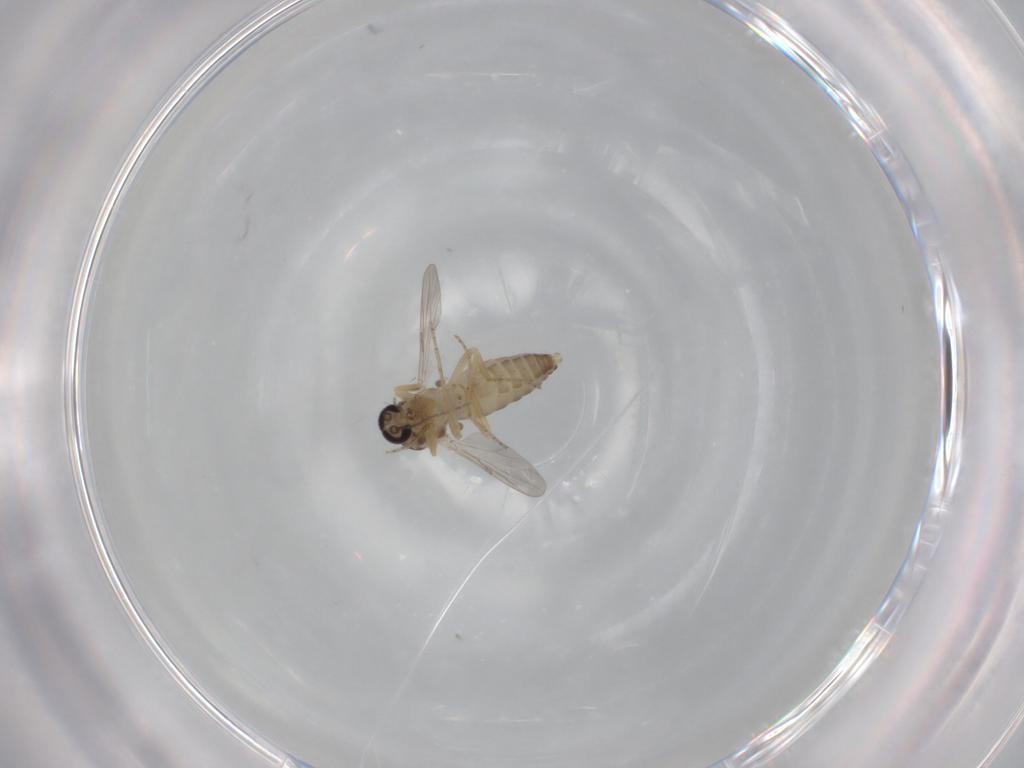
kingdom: Animalia
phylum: Arthropoda
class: Insecta
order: Diptera
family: Ceratopogonidae
